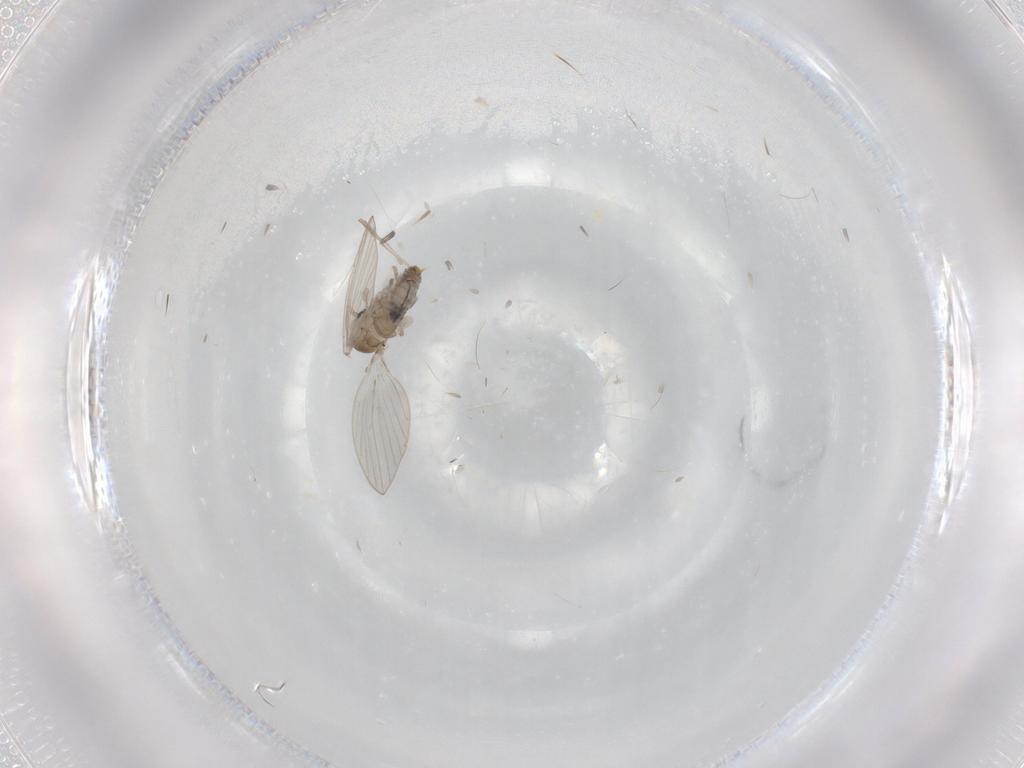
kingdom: Animalia
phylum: Arthropoda
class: Insecta
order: Diptera
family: Psychodidae
